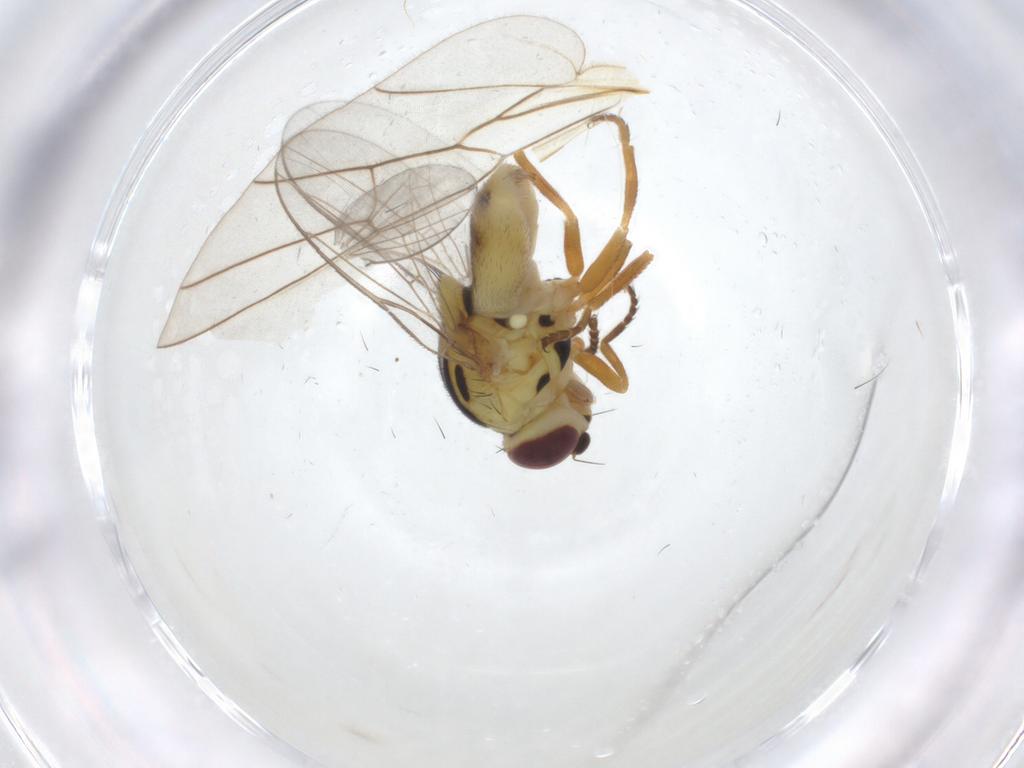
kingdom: Animalia
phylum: Arthropoda
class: Insecta
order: Diptera
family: Chloropidae
